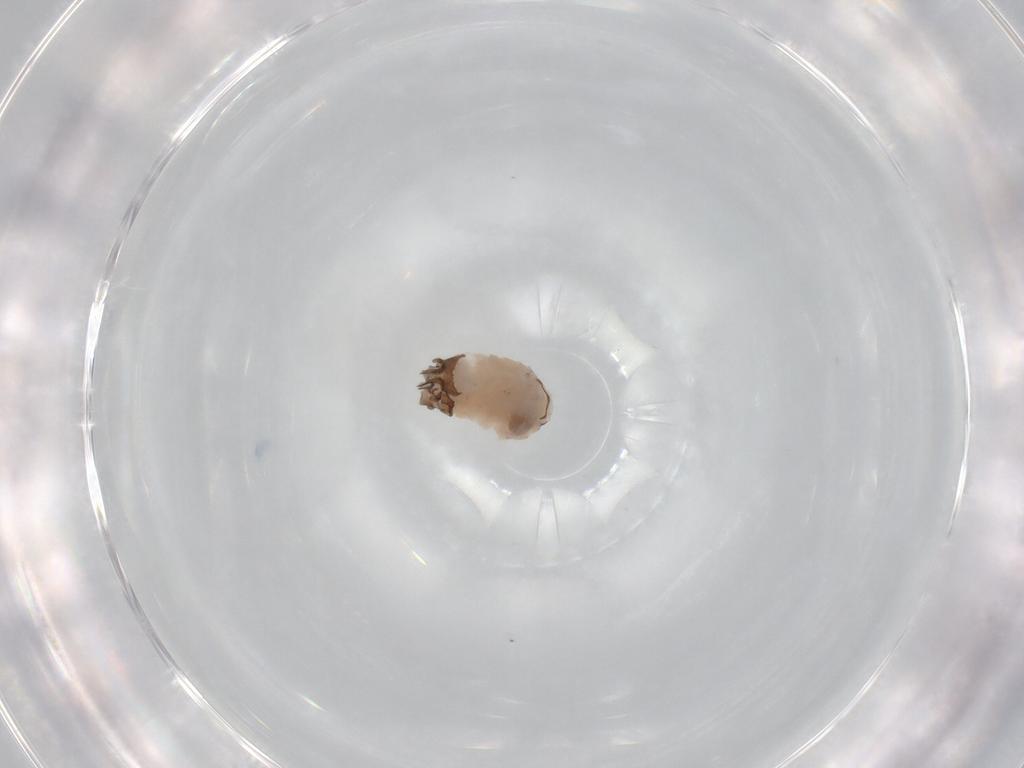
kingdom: Animalia
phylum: Arthropoda
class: Insecta
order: Psocodea
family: Peripsocidae
